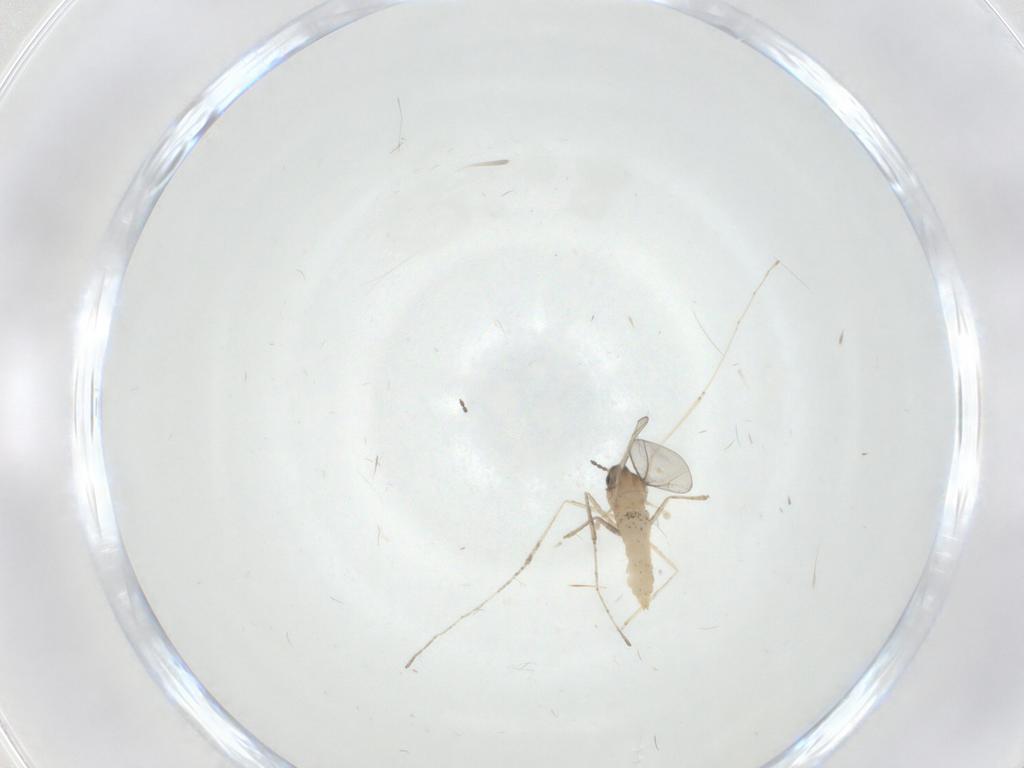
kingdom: Animalia
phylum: Arthropoda
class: Insecta
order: Diptera
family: Cecidomyiidae
